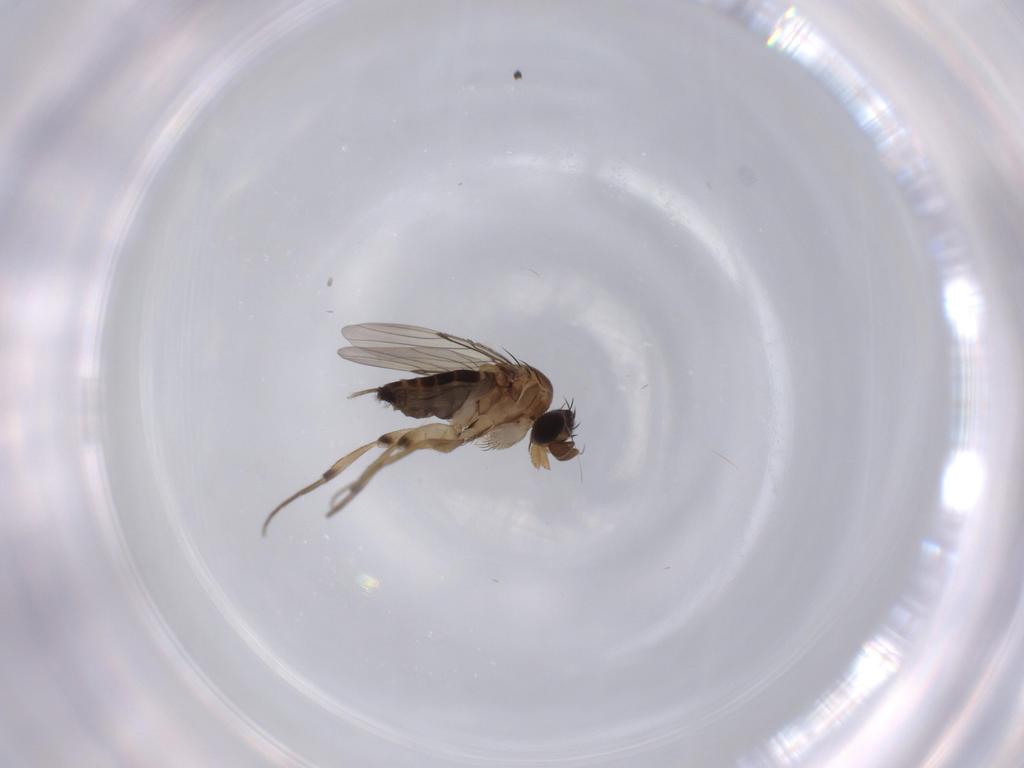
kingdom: Animalia
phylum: Arthropoda
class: Insecta
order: Diptera
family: Phoridae
